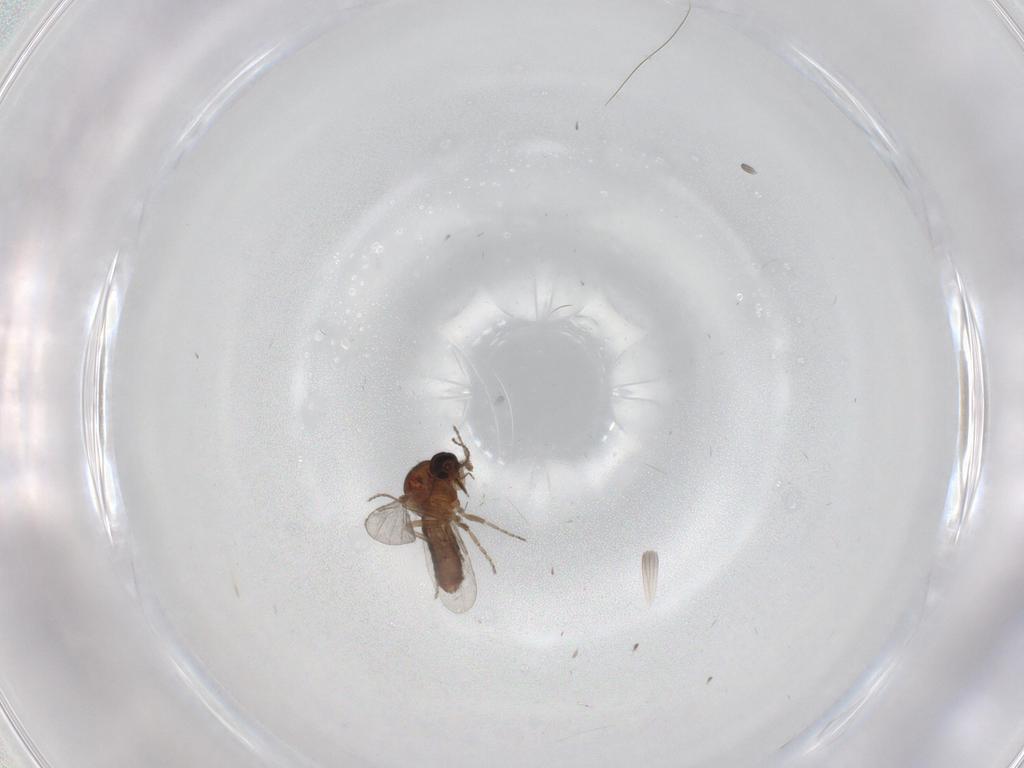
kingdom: Animalia
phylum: Arthropoda
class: Insecta
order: Diptera
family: Ceratopogonidae
